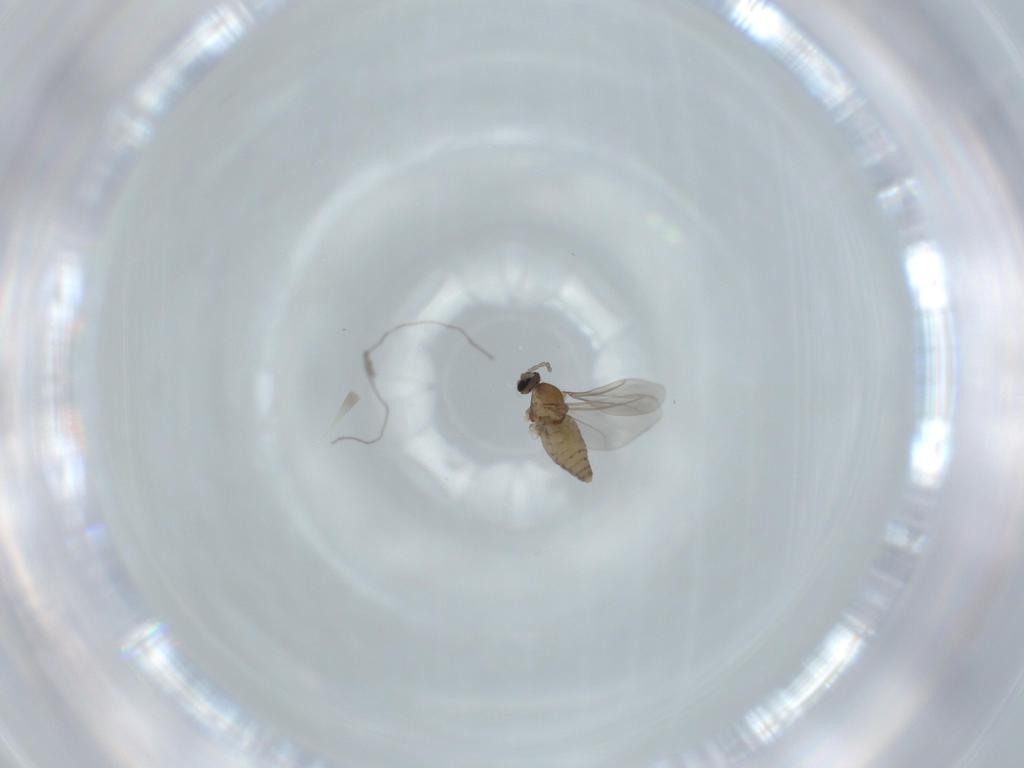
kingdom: Animalia
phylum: Arthropoda
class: Insecta
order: Diptera
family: Cecidomyiidae
